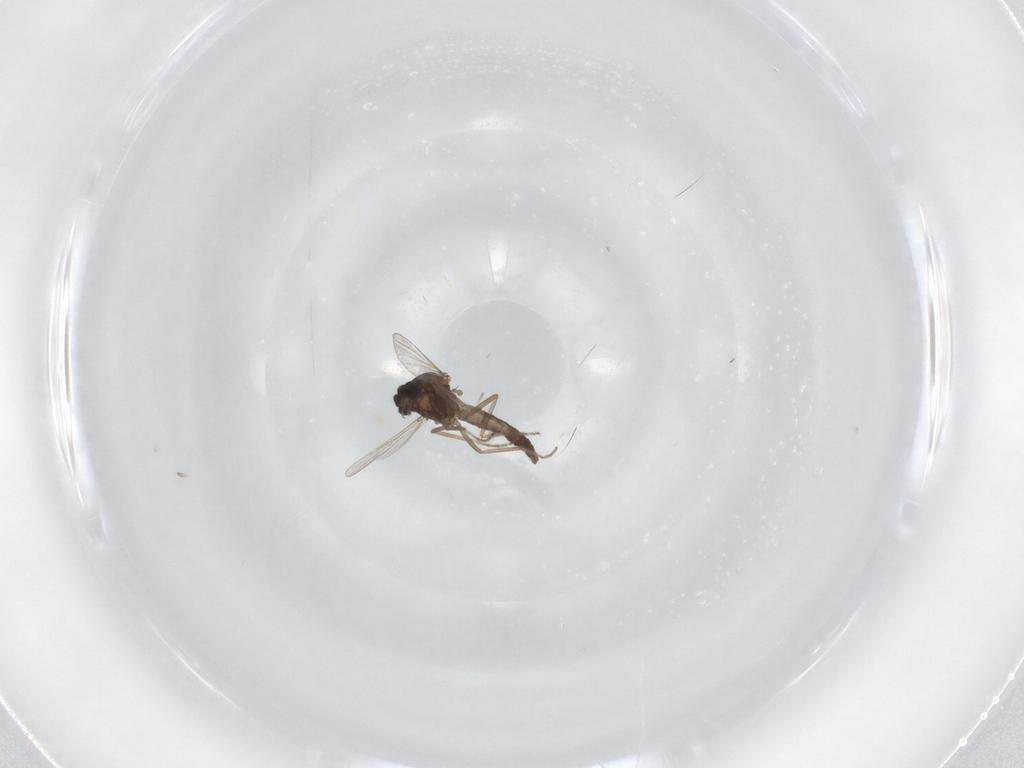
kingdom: Animalia
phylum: Arthropoda
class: Insecta
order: Diptera
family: Ceratopogonidae
